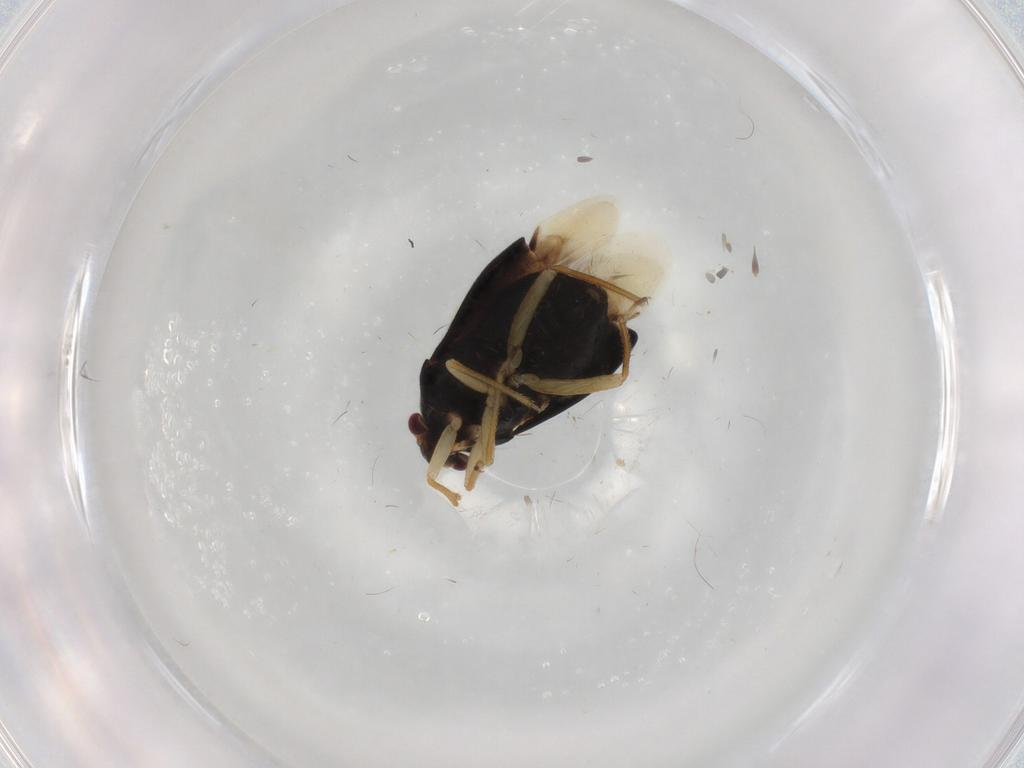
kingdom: Animalia
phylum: Arthropoda
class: Insecta
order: Hemiptera
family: Miridae
